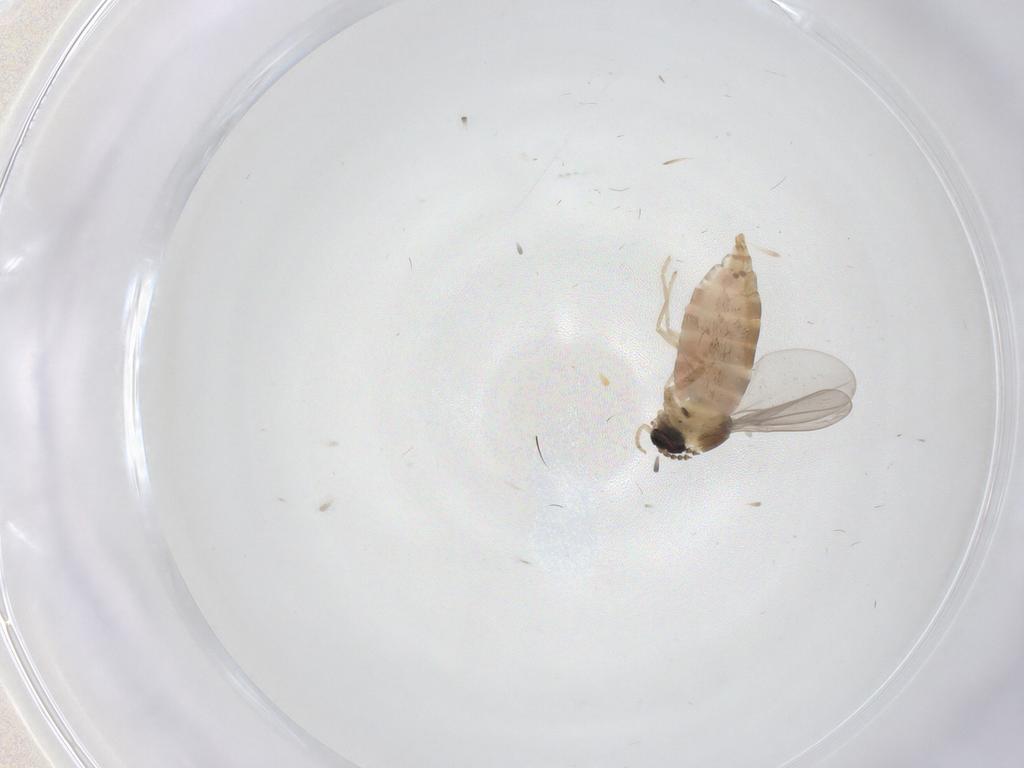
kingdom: Animalia
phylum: Arthropoda
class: Insecta
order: Diptera
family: Cecidomyiidae
